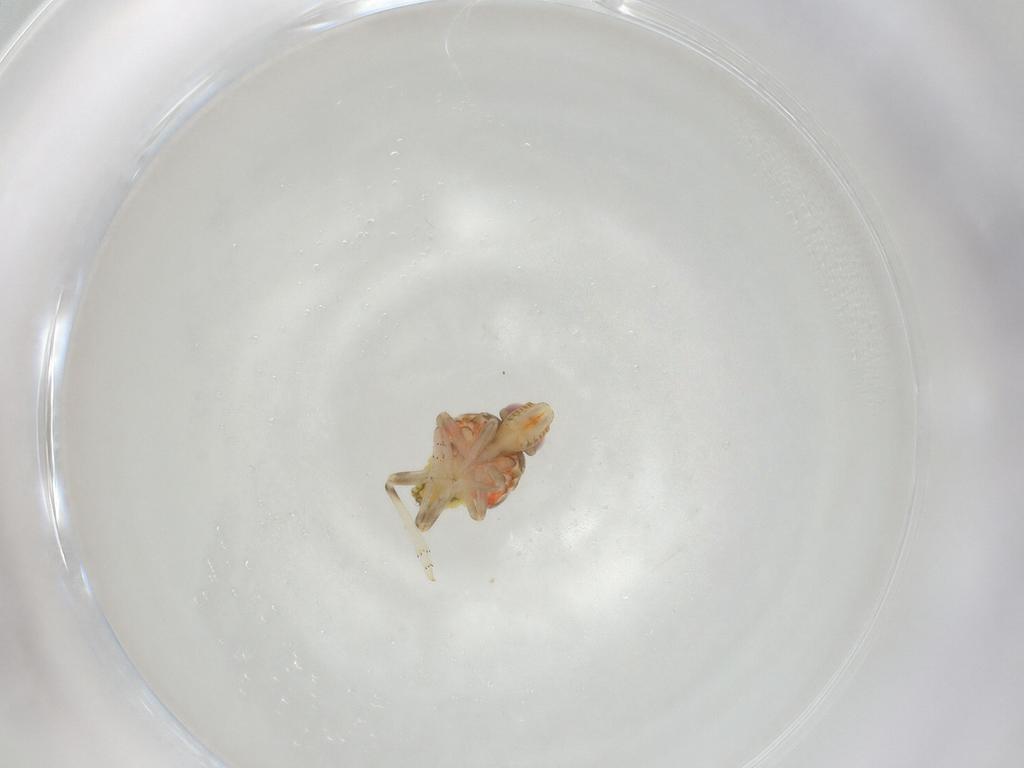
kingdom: Animalia
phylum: Arthropoda
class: Insecta
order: Hemiptera
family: Tropiduchidae
